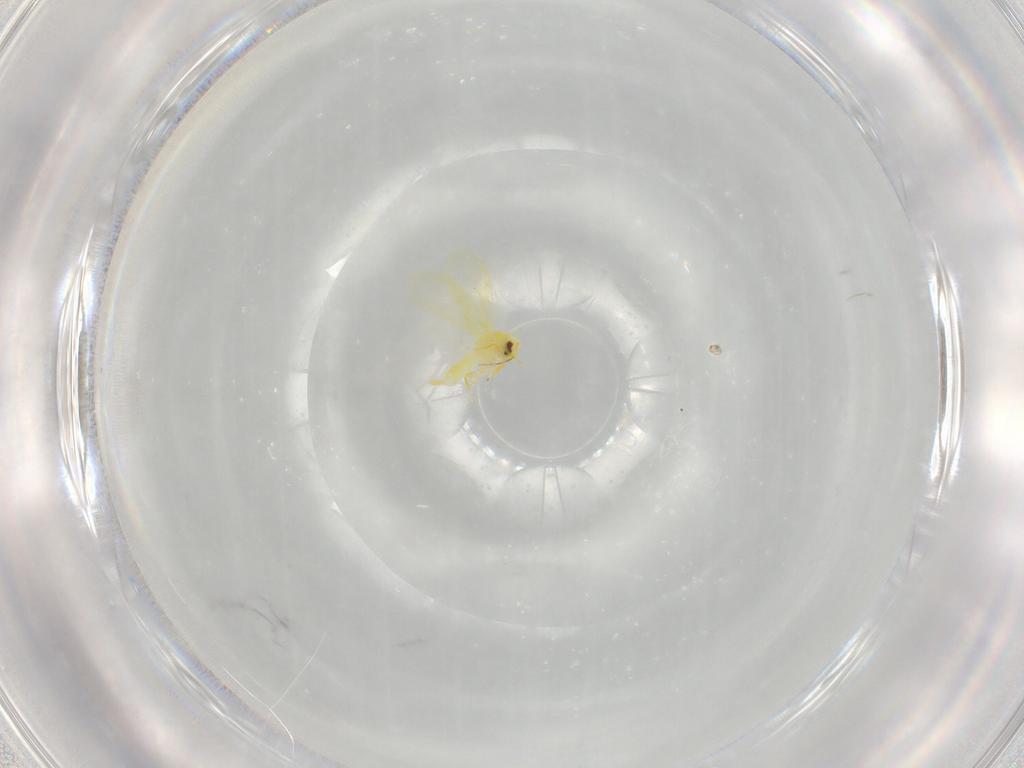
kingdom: Animalia
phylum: Arthropoda
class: Insecta
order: Hemiptera
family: Aleyrodidae
